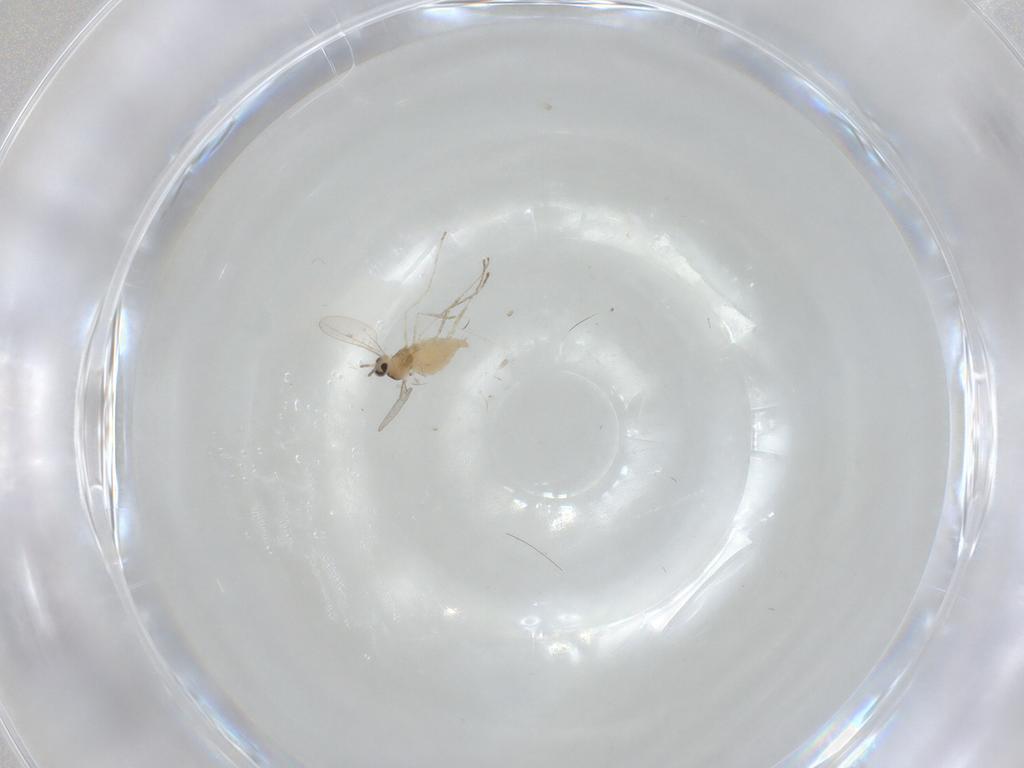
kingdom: Animalia
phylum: Arthropoda
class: Insecta
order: Diptera
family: Cecidomyiidae
